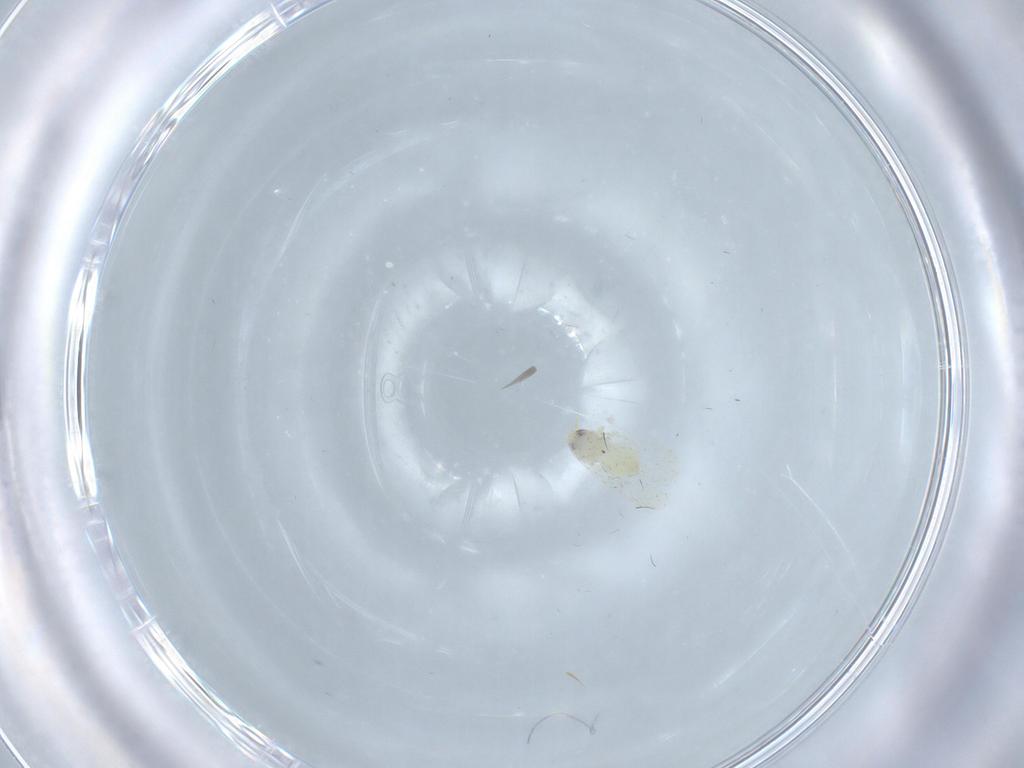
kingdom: Animalia
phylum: Arthropoda
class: Insecta
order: Hemiptera
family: Aleyrodidae
